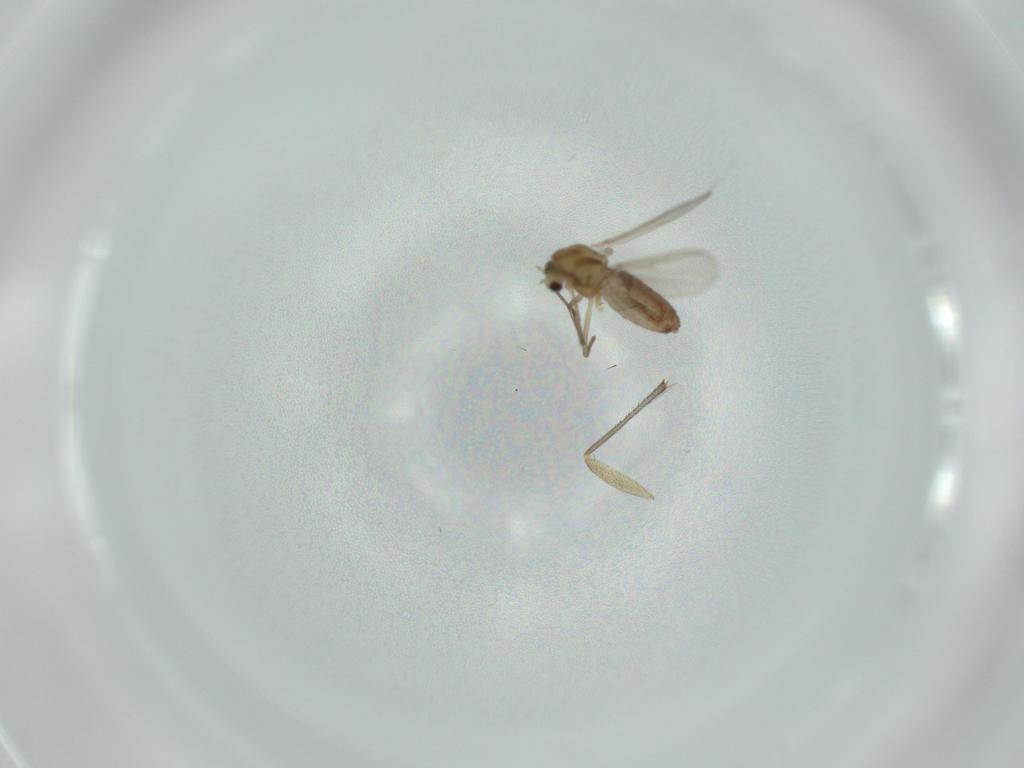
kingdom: Animalia
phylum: Arthropoda
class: Insecta
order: Diptera
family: Chironomidae
